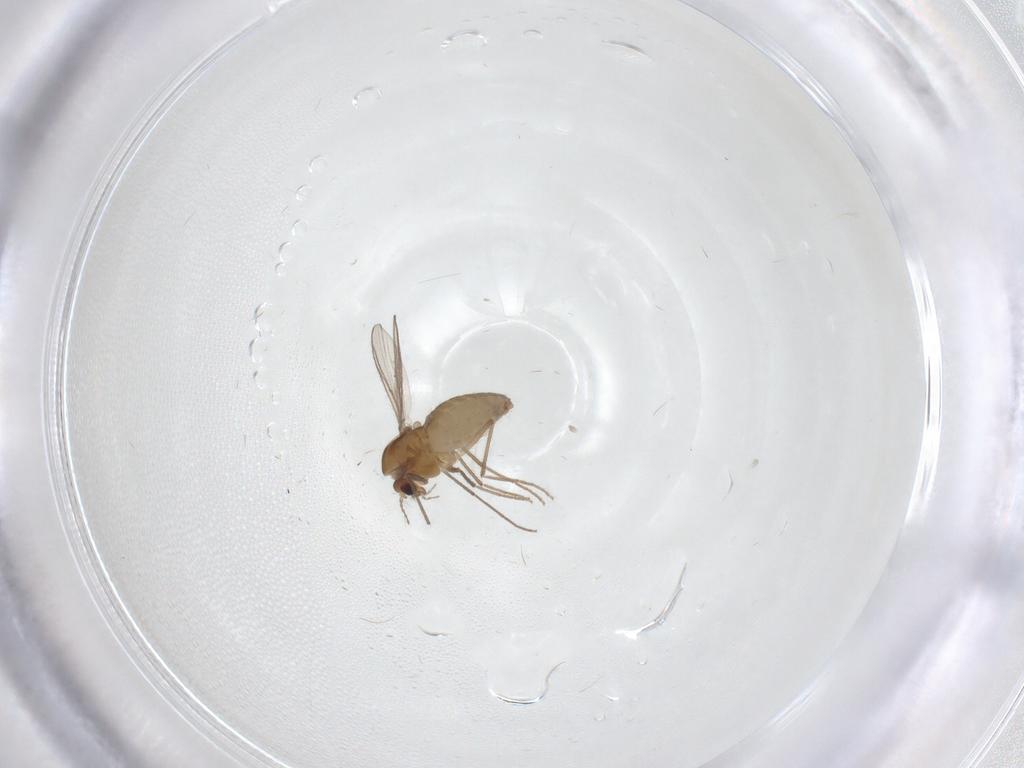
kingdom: Animalia
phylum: Arthropoda
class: Insecta
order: Diptera
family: Chironomidae
